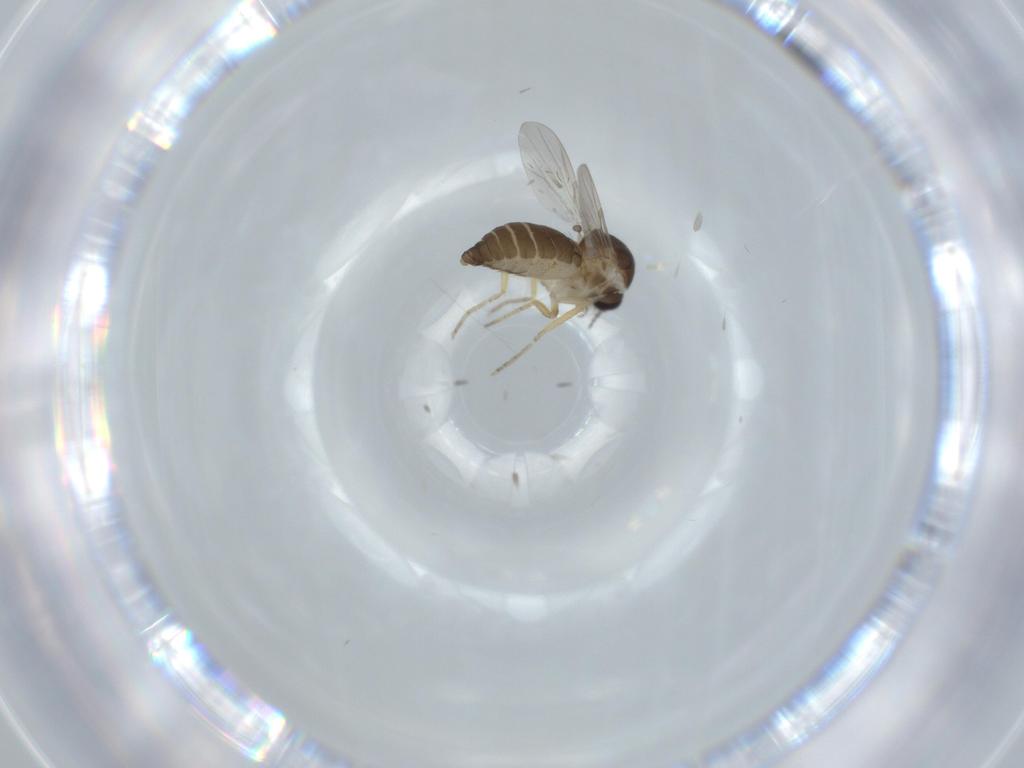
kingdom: Animalia
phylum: Arthropoda
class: Insecta
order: Diptera
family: Ceratopogonidae
